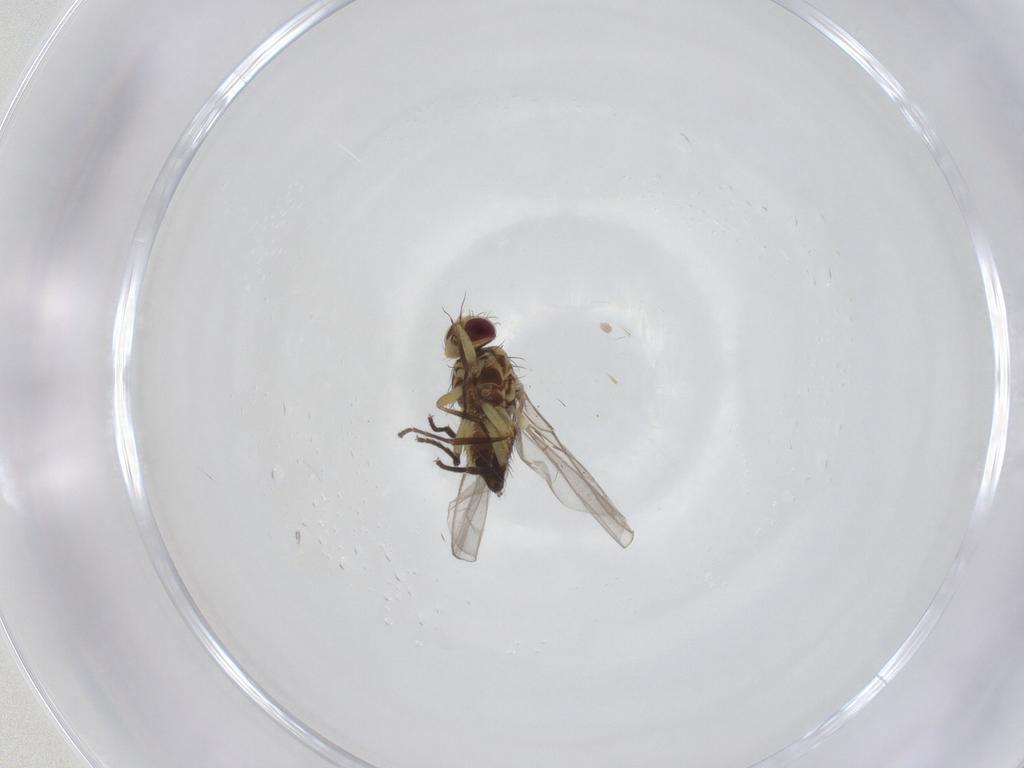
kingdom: Animalia
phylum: Arthropoda
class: Insecta
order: Diptera
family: Agromyzidae
